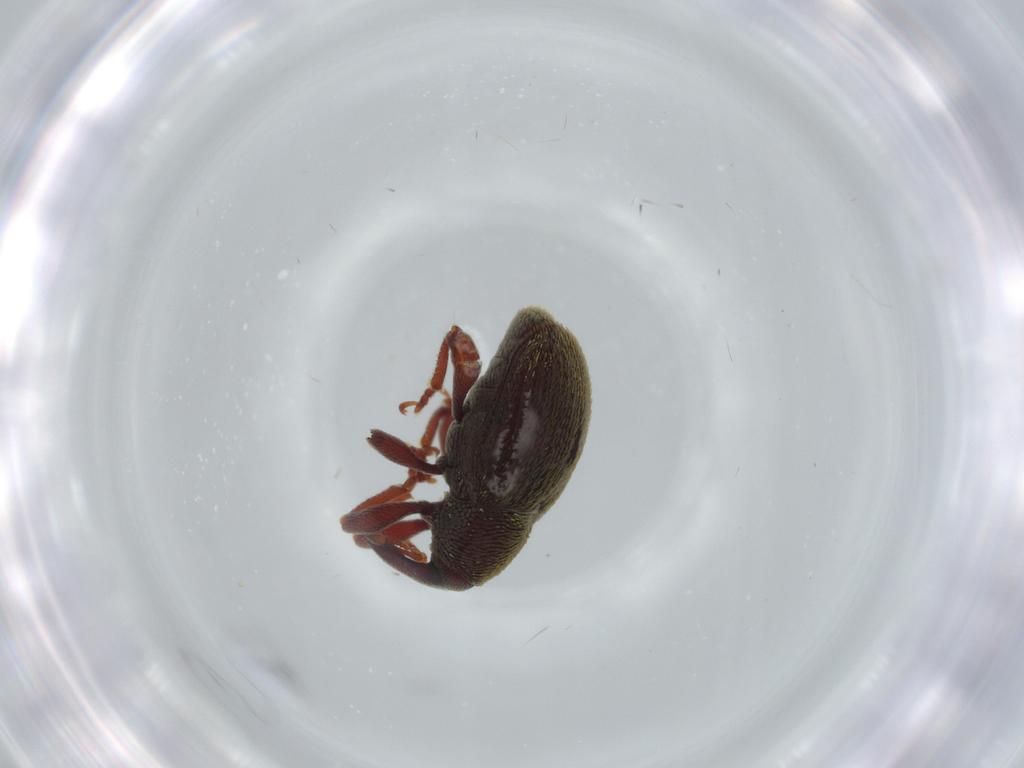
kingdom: Animalia
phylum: Arthropoda
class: Insecta
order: Coleoptera
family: Curculionidae
